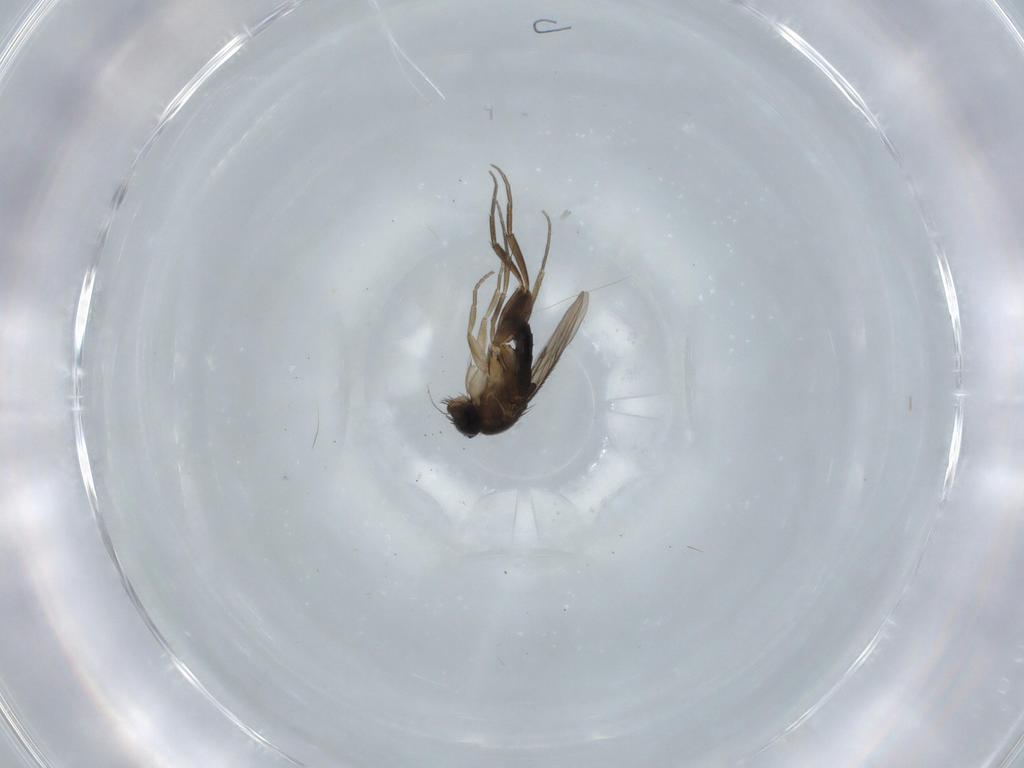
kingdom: Animalia
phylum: Arthropoda
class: Insecta
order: Diptera
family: Phoridae
